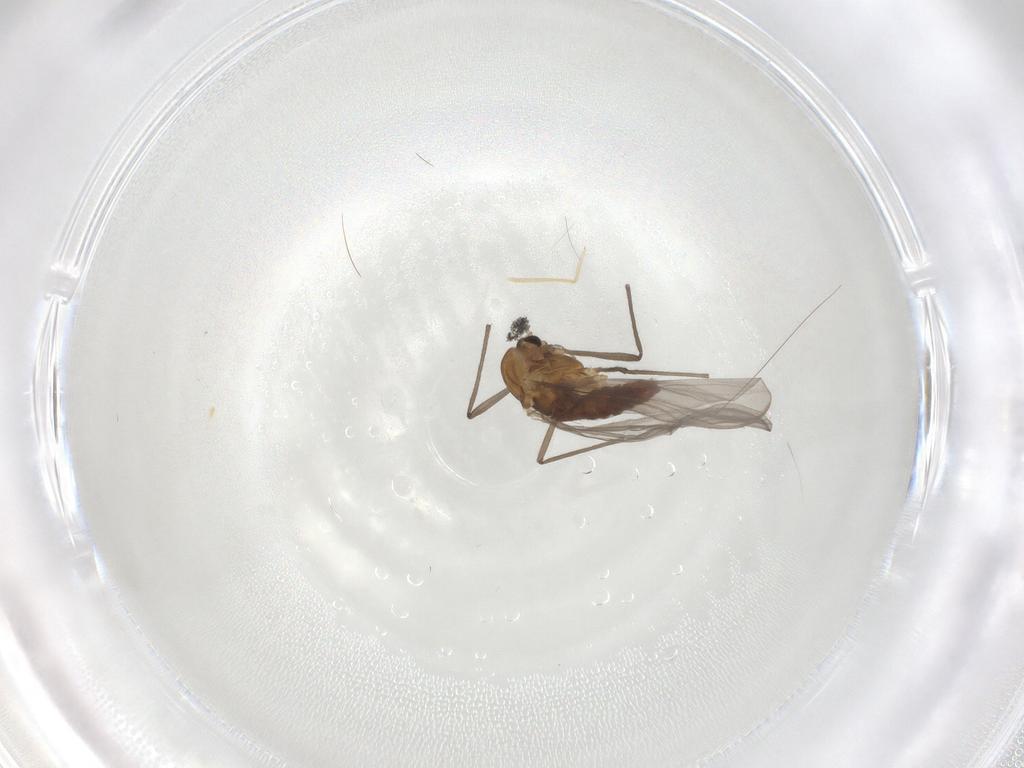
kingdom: Animalia
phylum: Arthropoda
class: Insecta
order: Diptera
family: Chironomidae
